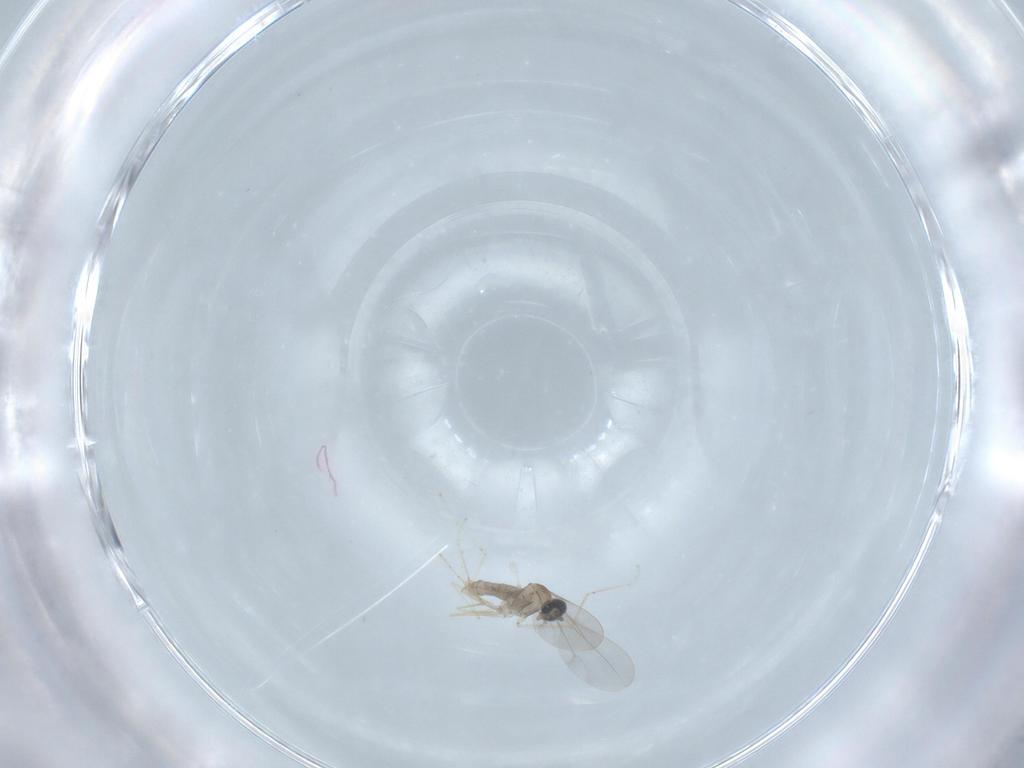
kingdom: Animalia
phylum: Arthropoda
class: Insecta
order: Diptera
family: Cecidomyiidae
